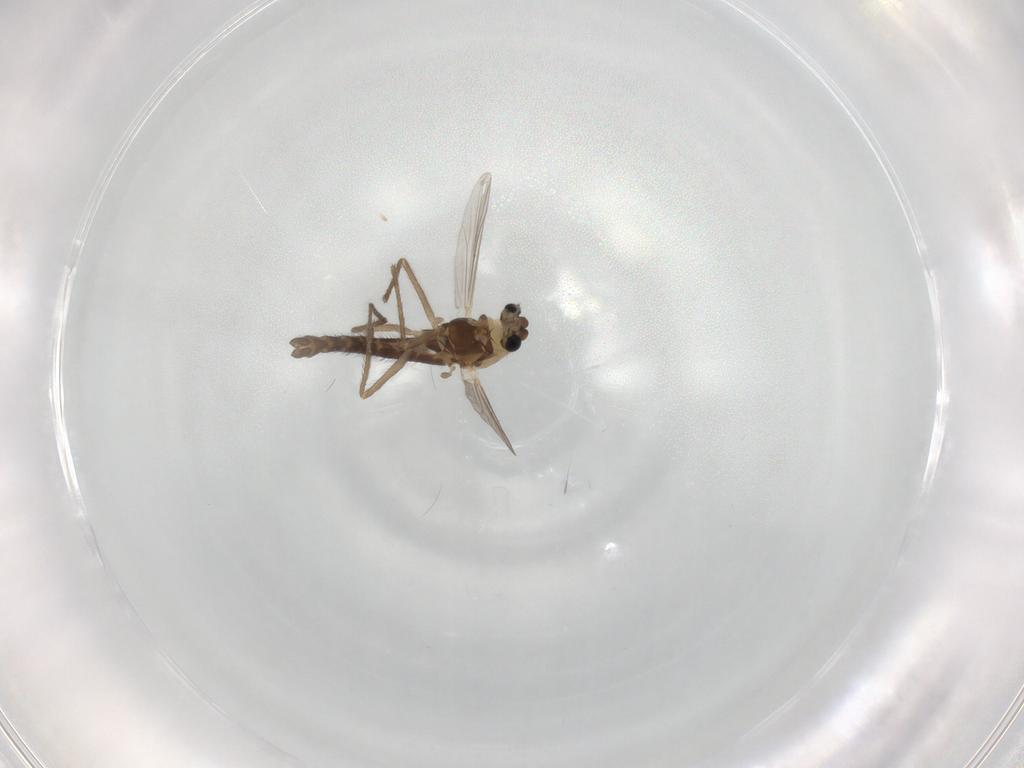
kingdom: Animalia
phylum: Arthropoda
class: Insecta
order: Diptera
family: Chironomidae
